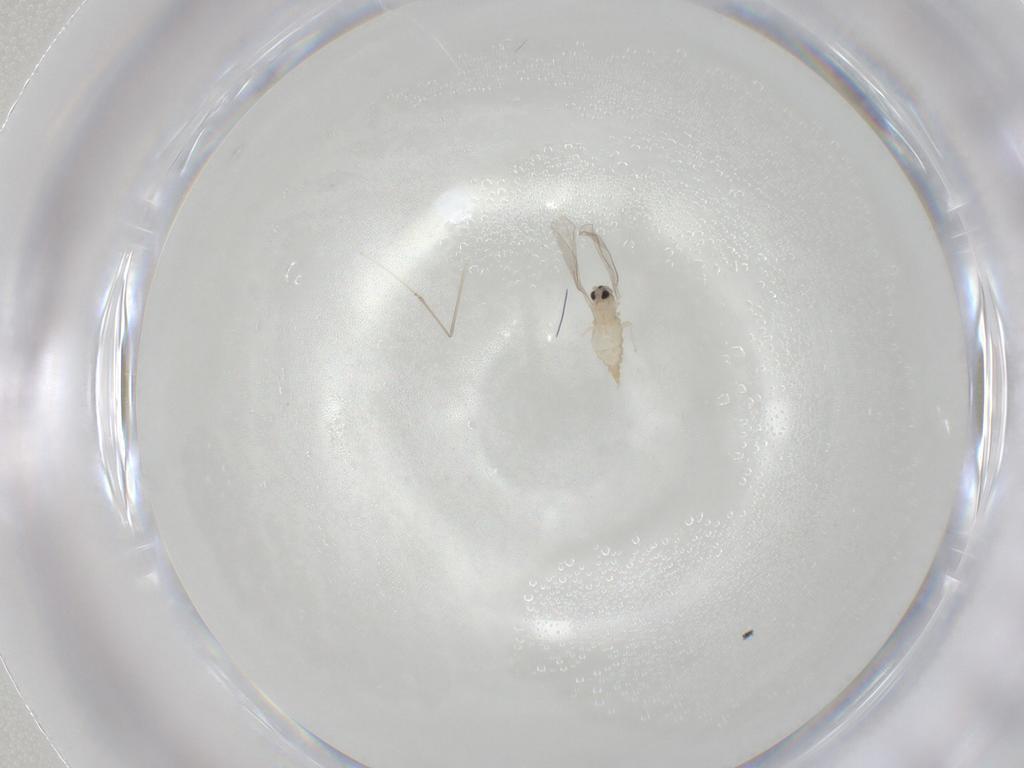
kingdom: Animalia
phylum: Arthropoda
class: Insecta
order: Diptera
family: Cecidomyiidae
